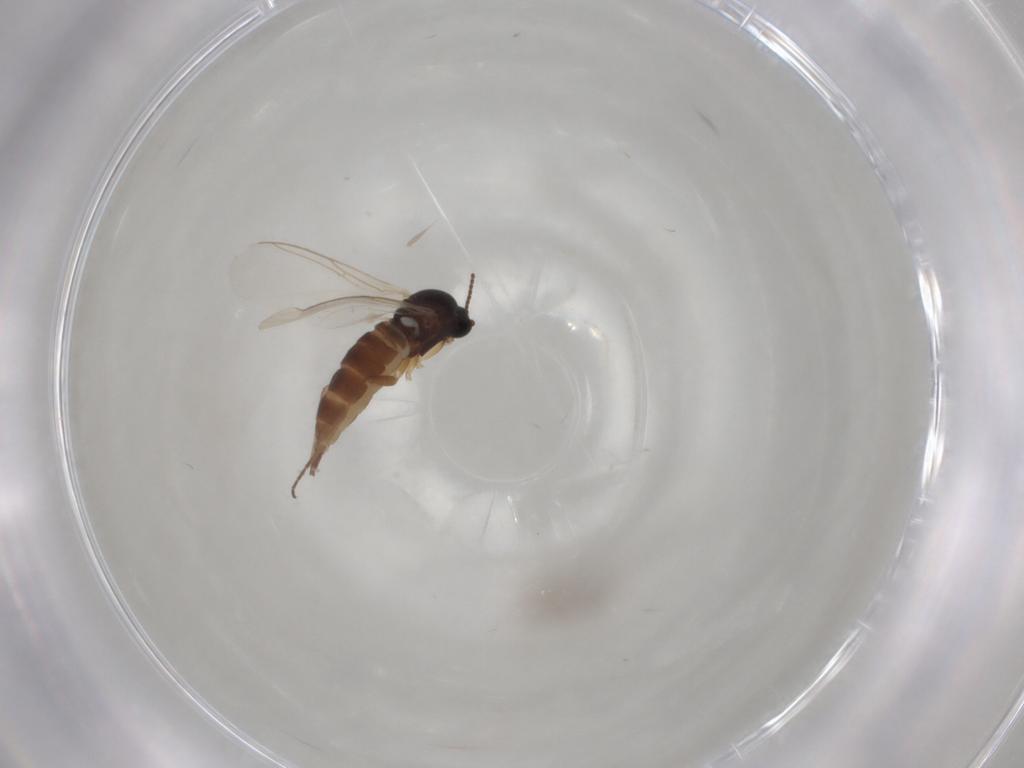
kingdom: Animalia
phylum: Arthropoda
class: Insecta
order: Diptera
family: Sciaridae
